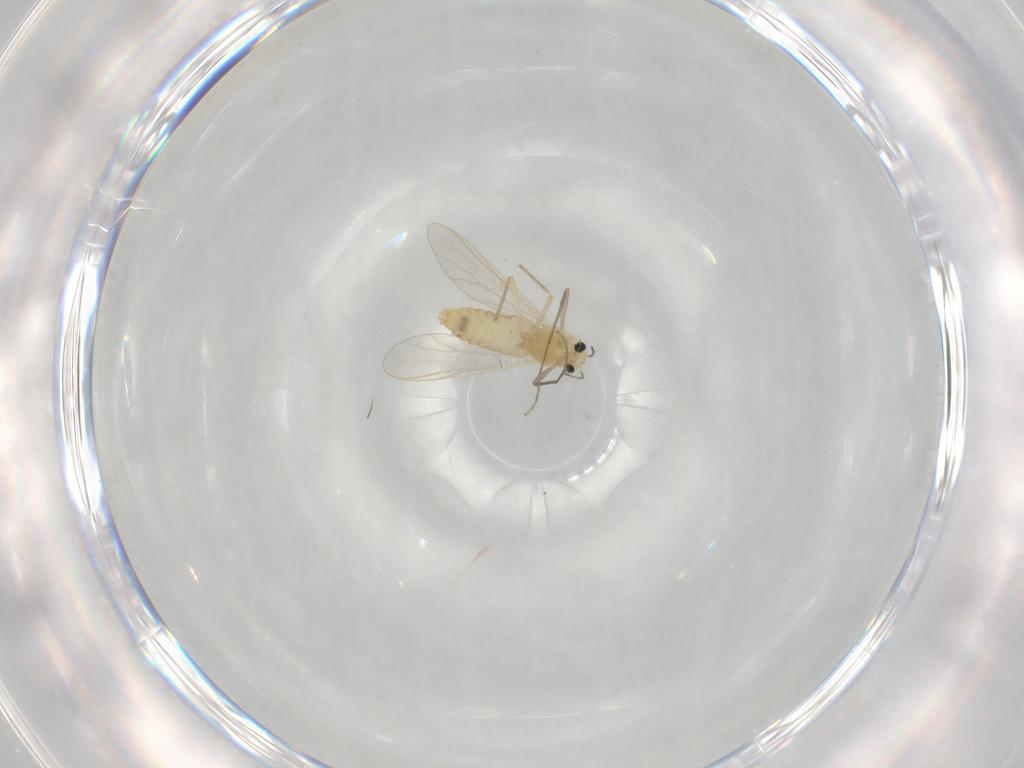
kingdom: Animalia
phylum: Arthropoda
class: Insecta
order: Diptera
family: Chironomidae
